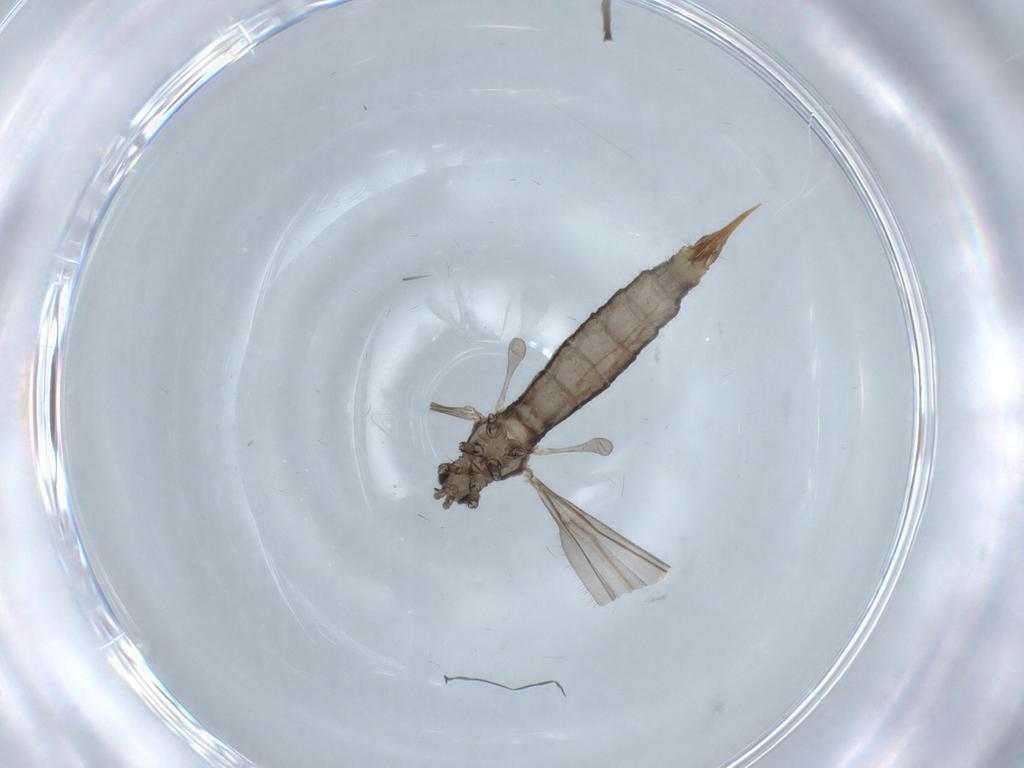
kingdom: Animalia
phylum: Arthropoda
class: Insecta
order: Diptera
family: Limoniidae
